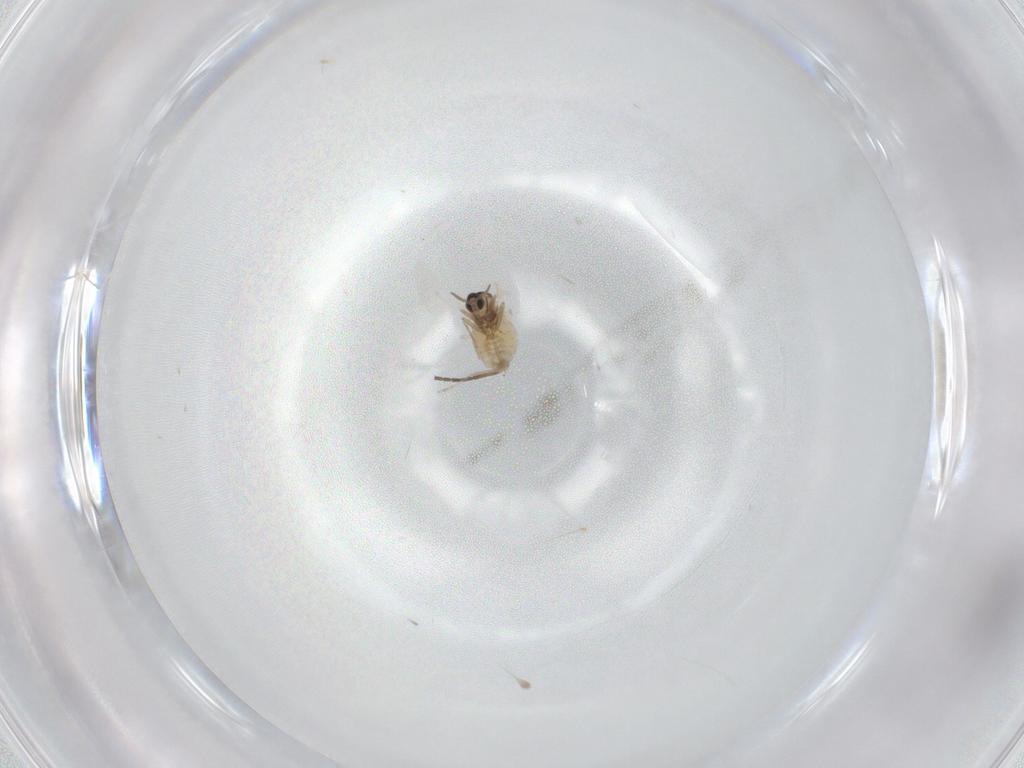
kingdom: Animalia
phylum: Arthropoda
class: Insecta
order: Diptera
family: Cecidomyiidae
